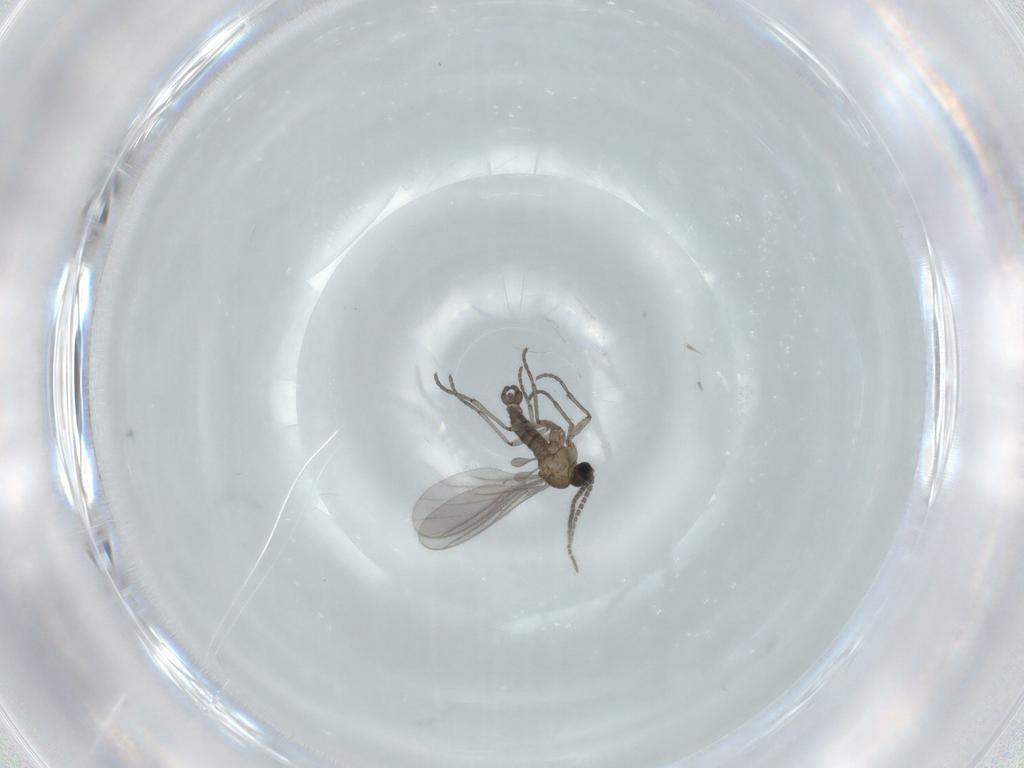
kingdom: Animalia
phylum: Arthropoda
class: Insecta
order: Diptera
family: Sciaridae
